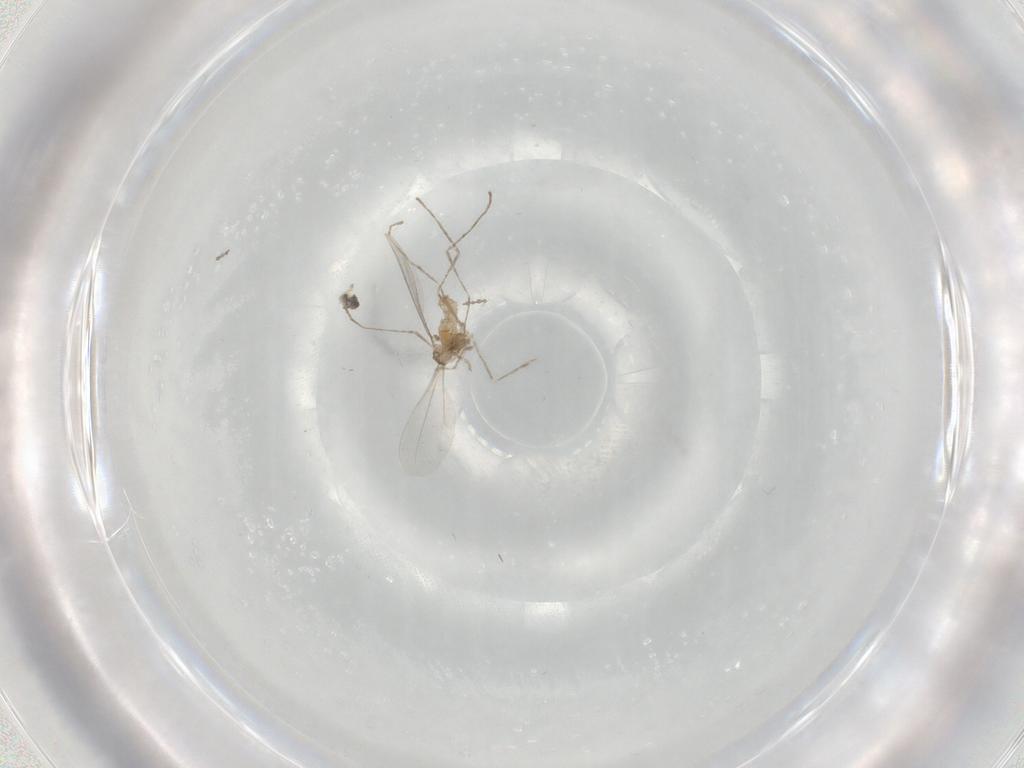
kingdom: Animalia
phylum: Arthropoda
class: Insecta
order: Diptera
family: Cecidomyiidae
